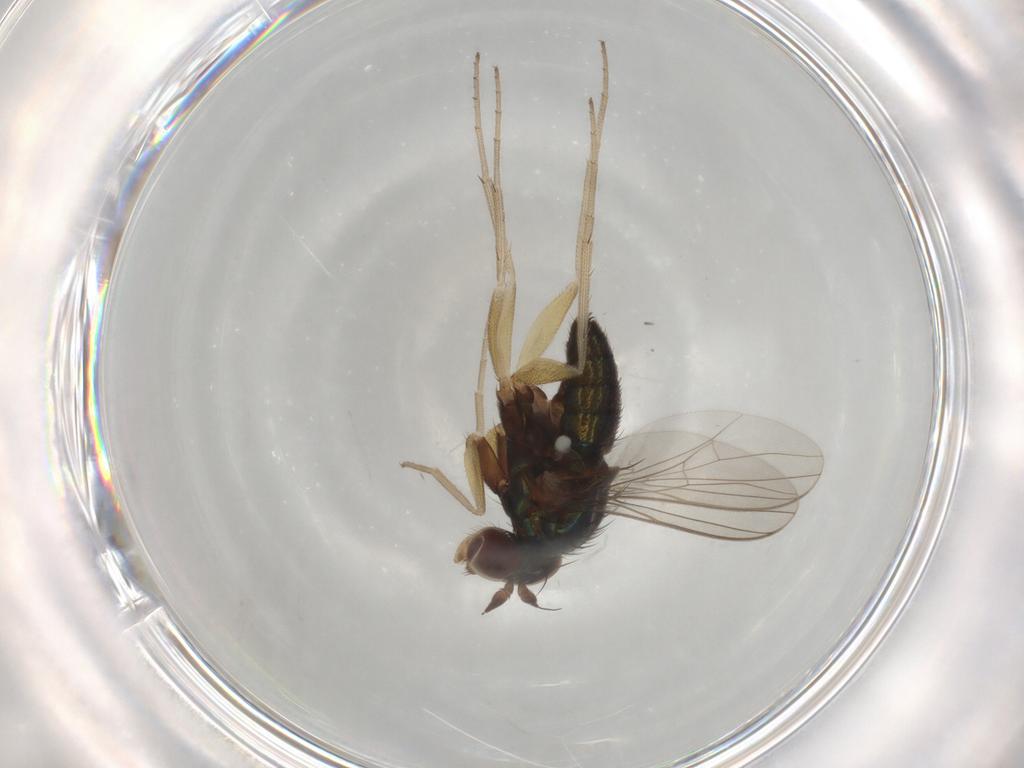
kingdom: Animalia
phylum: Arthropoda
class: Insecta
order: Diptera
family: Dolichopodidae
